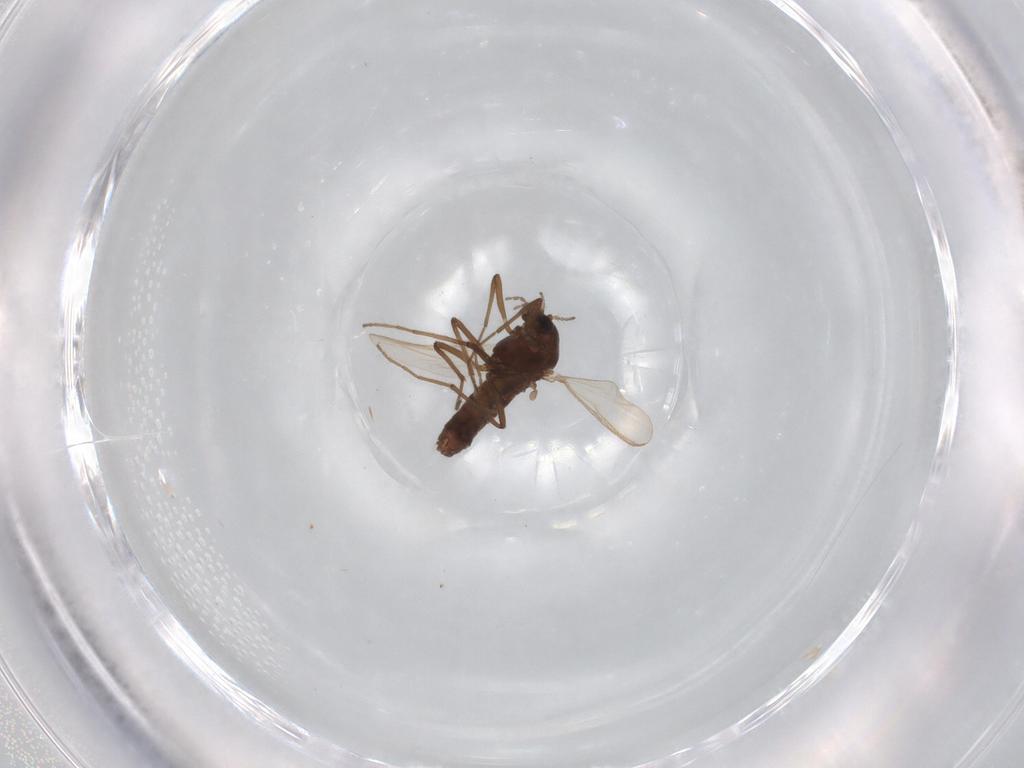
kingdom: Animalia
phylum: Arthropoda
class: Insecta
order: Diptera
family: Chironomidae
